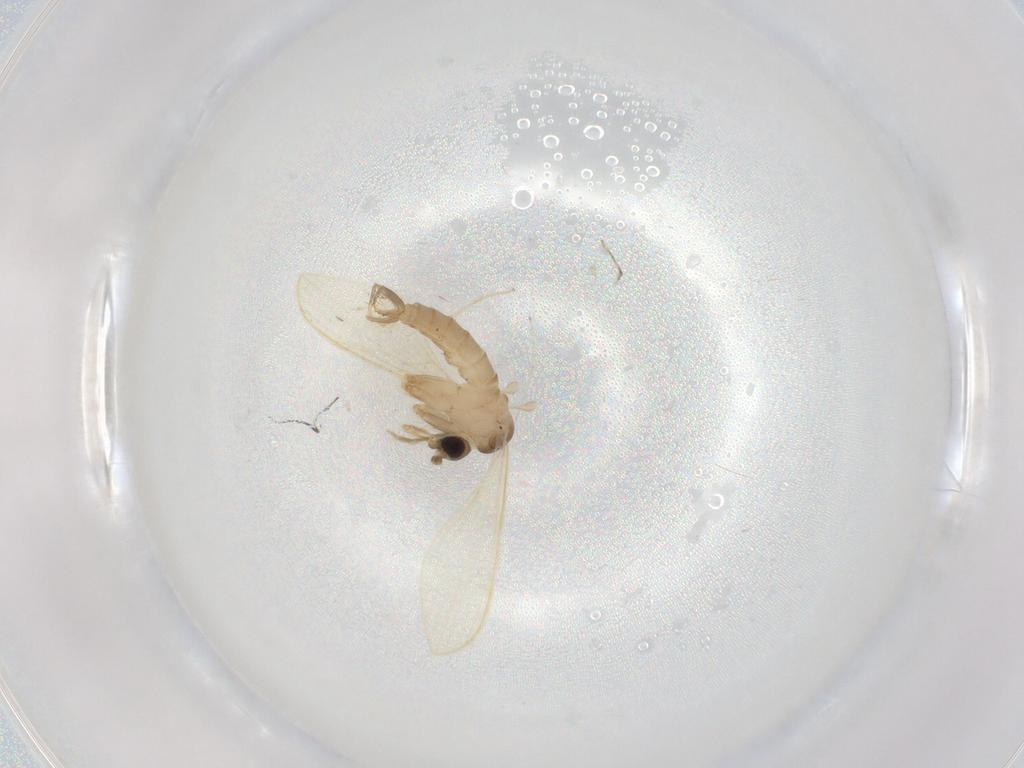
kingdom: Animalia
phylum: Arthropoda
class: Insecta
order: Diptera
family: Psychodidae
